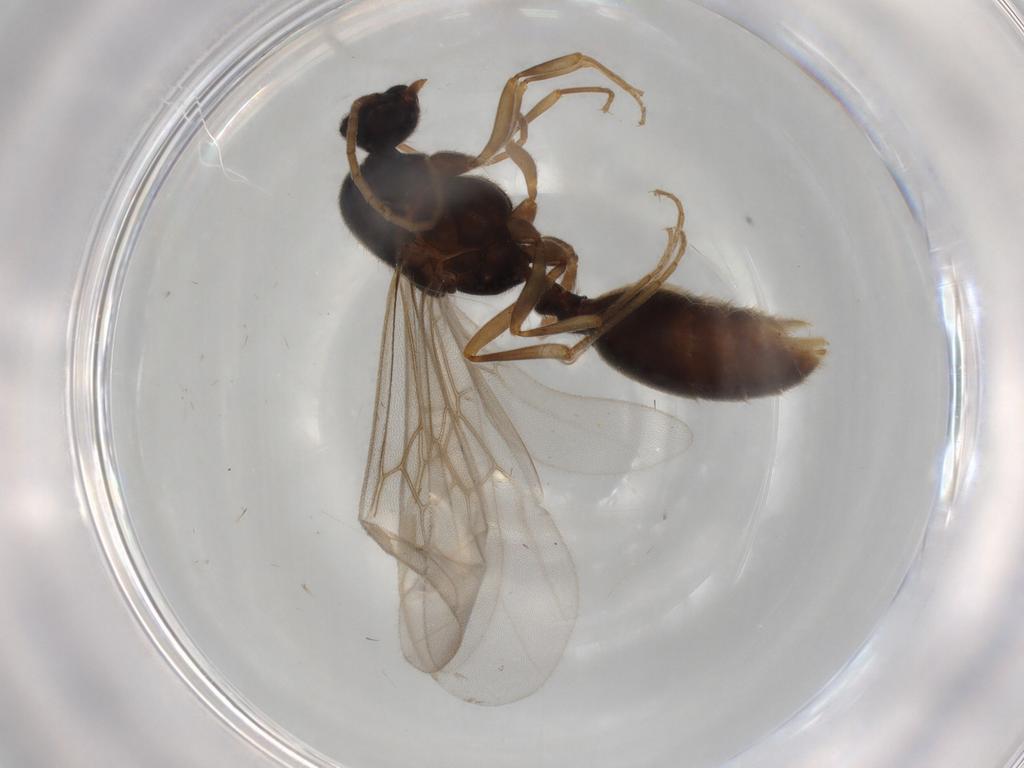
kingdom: Animalia
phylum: Arthropoda
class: Insecta
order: Hymenoptera
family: Formicidae
